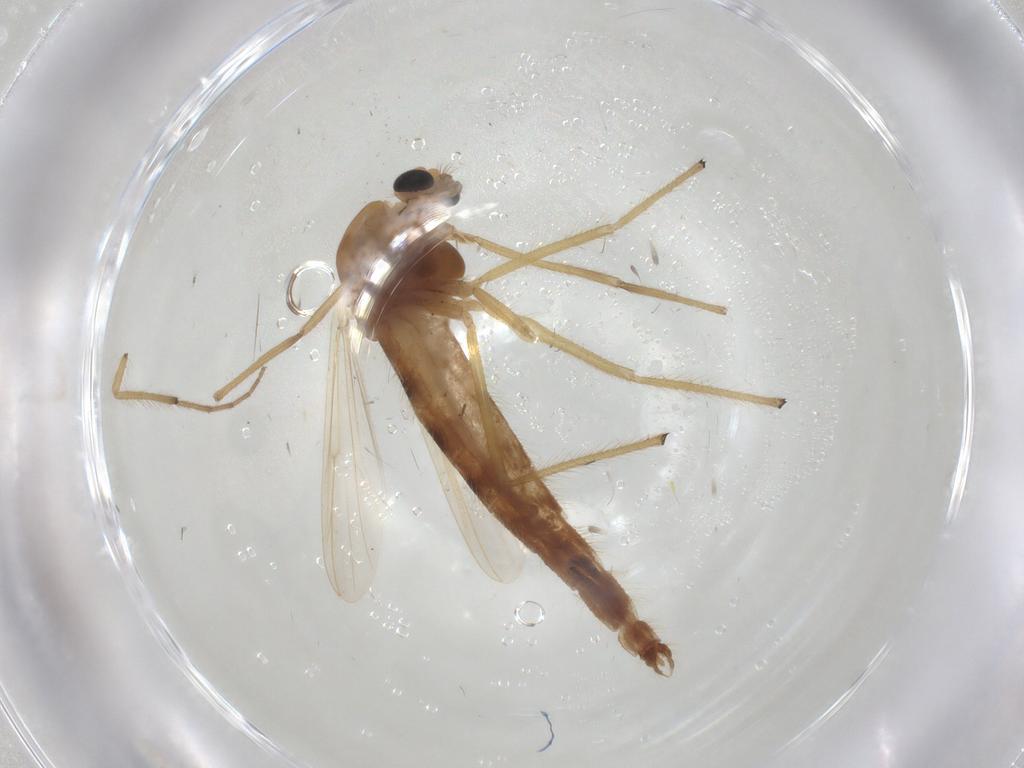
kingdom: Animalia
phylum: Arthropoda
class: Insecta
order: Diptera
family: Chironomidae
